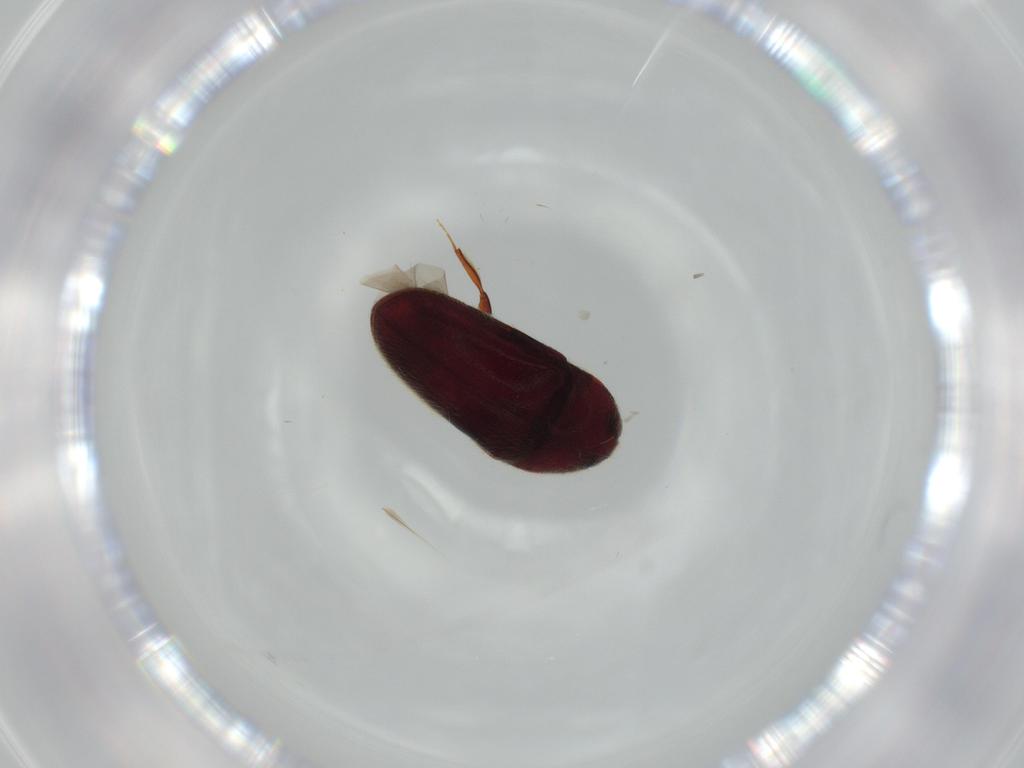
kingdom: Animalia
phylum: Arthropoda
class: Insecta
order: Coleoptera
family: Throscidae
